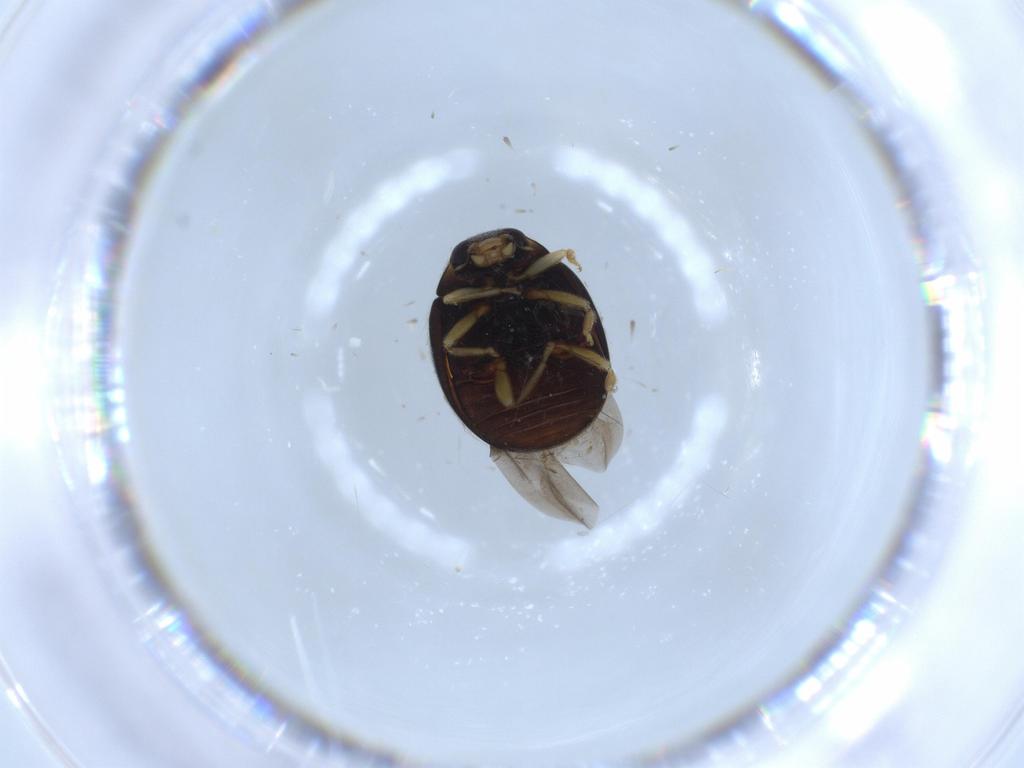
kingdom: Animalia
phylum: Arthropoda
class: Insecta
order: Coleoptera
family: Coccinellidae
